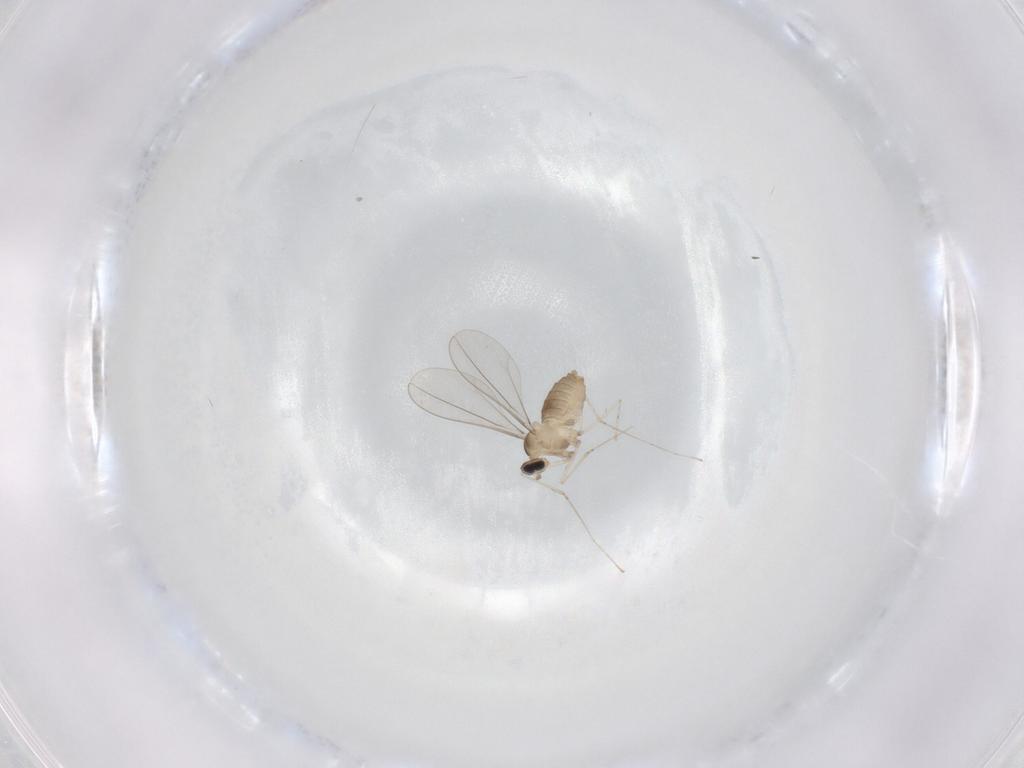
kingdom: Animalia
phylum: Arthropoda
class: Insecta
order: Diptera
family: Cecidomyiidae
